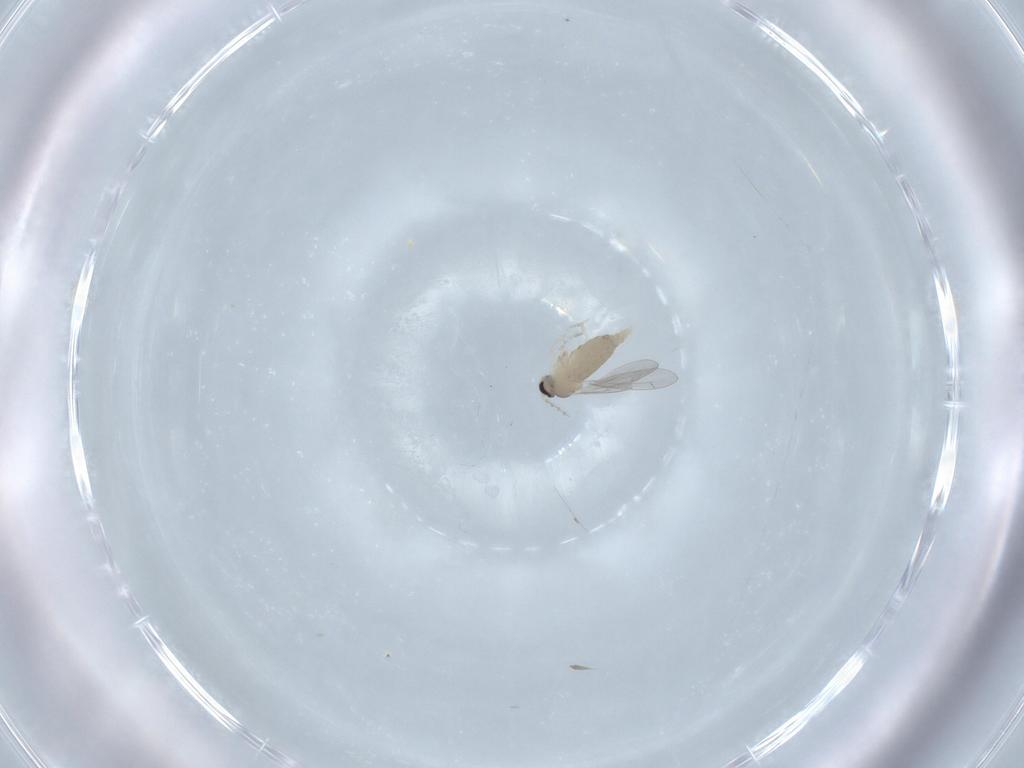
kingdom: Animalia
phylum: Arthropoda
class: Insecta
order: Diptera
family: Cecidomyiidae
